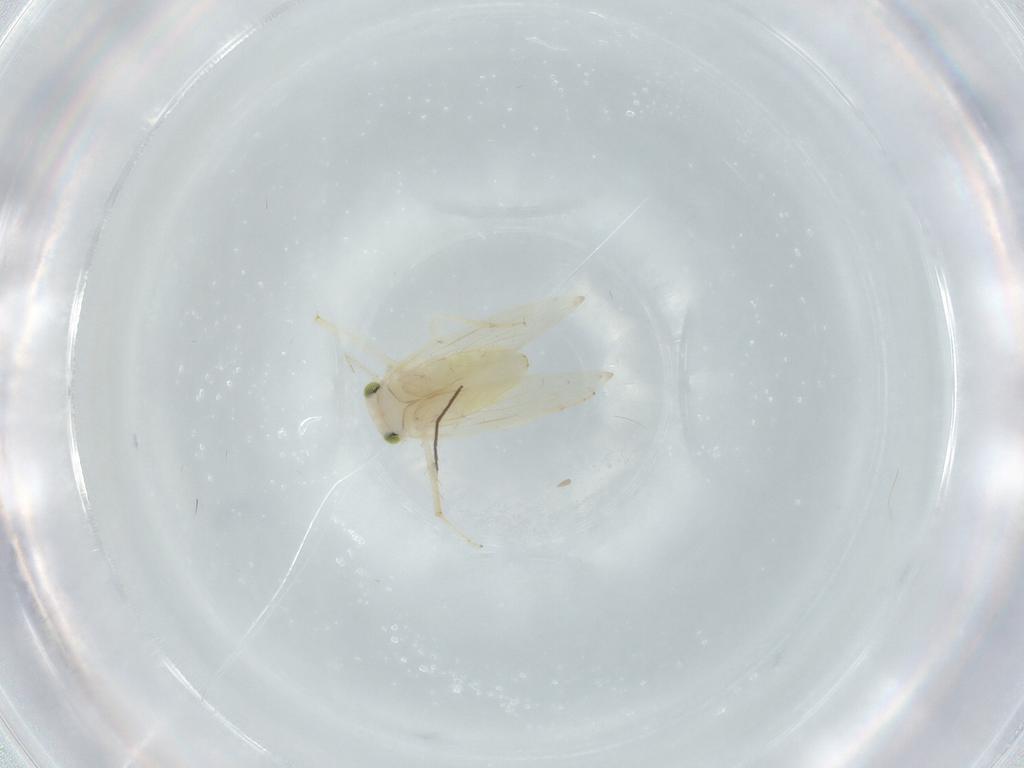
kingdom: Animalia
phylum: Arthropoda
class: Insecta
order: Psocodea
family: Lepidopsocidae
